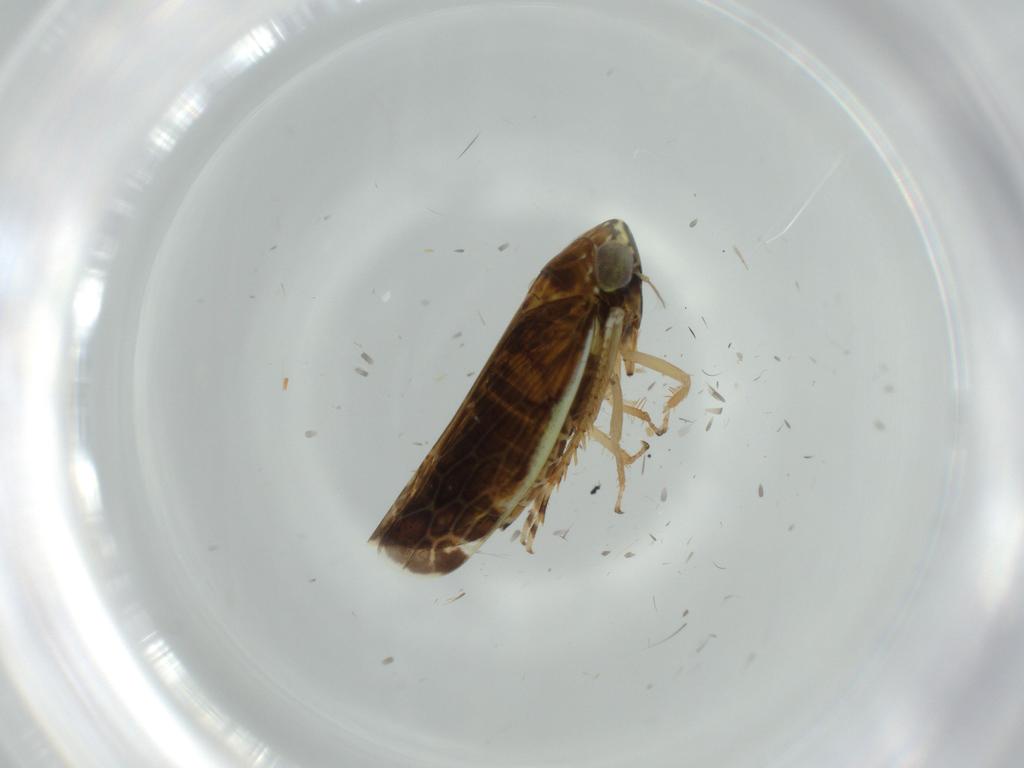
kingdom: Animalia
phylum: Arthropoda
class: Insecta
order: Hemiptera
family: Cicadellidae
